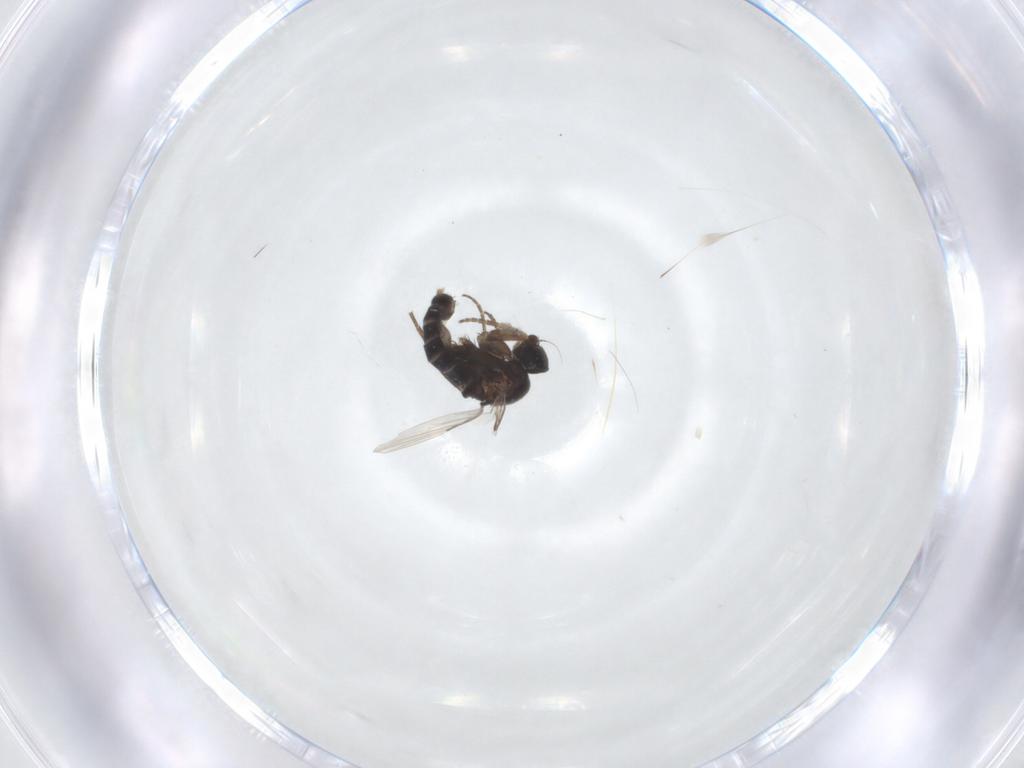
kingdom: Animalia
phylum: Arthropoda
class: Insecta
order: Diptera
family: Phoridae
